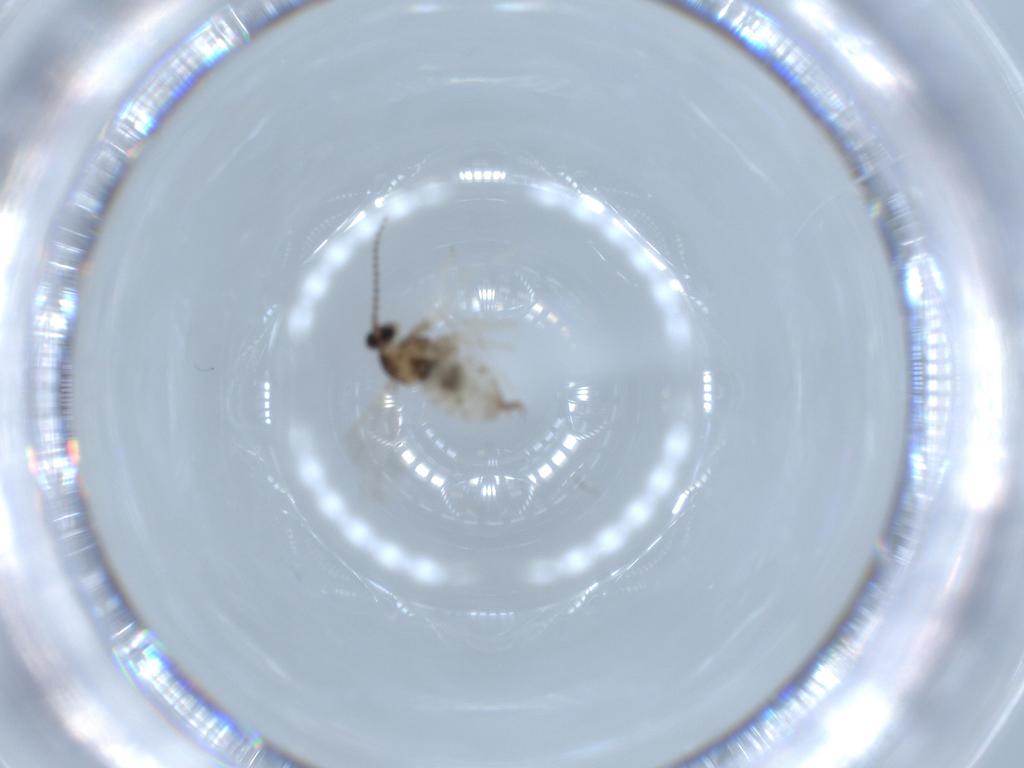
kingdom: Animalia
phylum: Arthropoda
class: Insecta
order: Diptera
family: Cecidomyiidae
